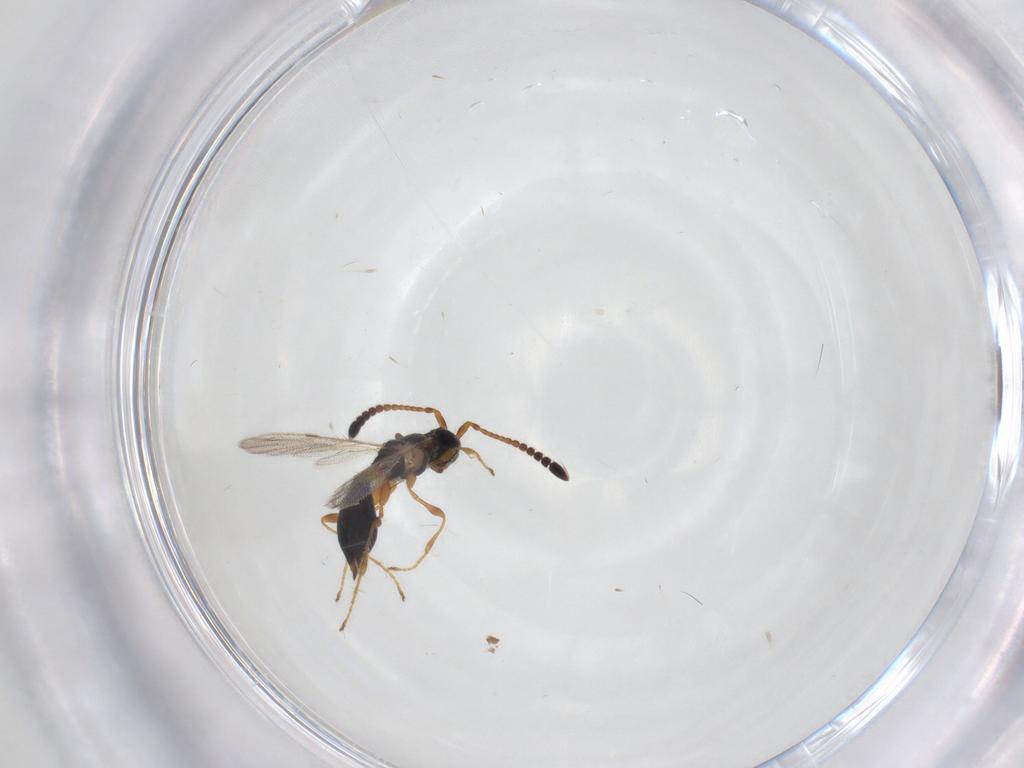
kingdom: Animalia
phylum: Arthropoda
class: Insecta
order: Hymenoptera
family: Diapriidae
